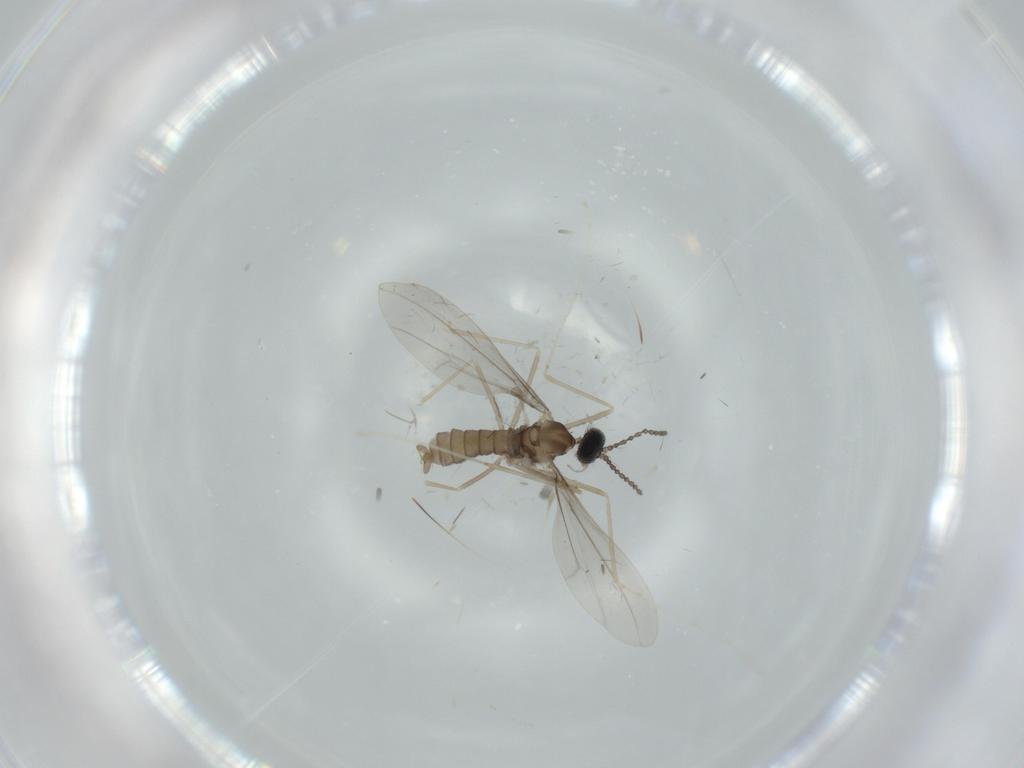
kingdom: Animalia
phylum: Arthropoda
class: Insecta
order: Diptera
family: Cecidomyiidae
